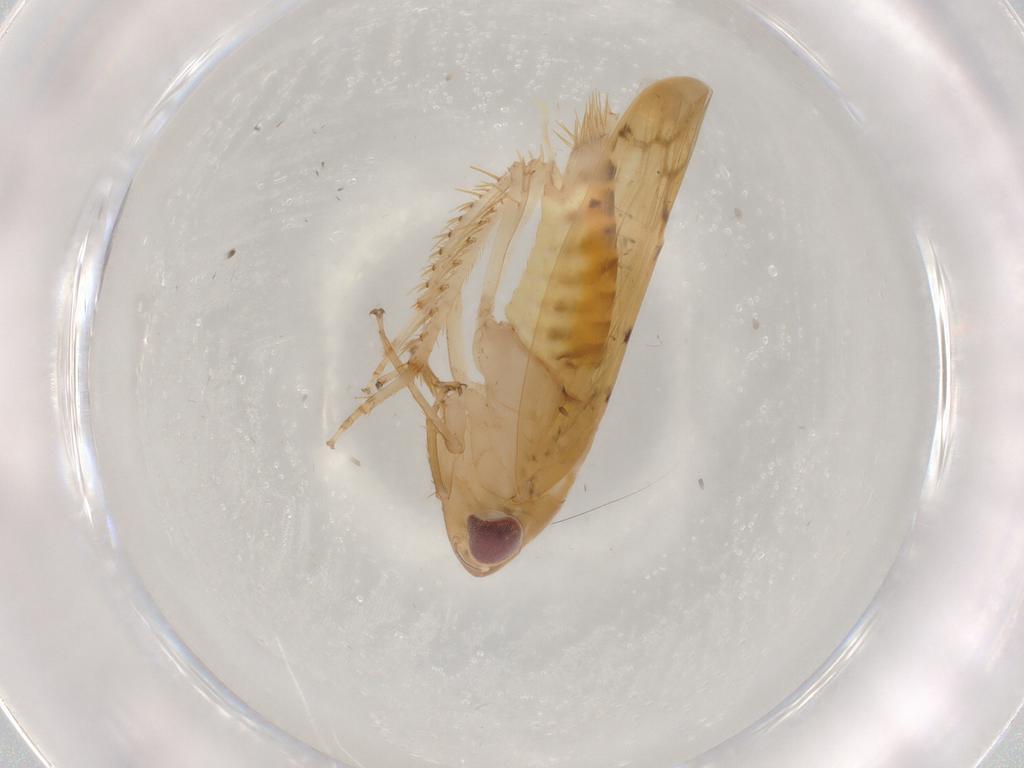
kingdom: Animalia
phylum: Arthropoda
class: Insecta
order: Hemiptera
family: Cicadellidae
